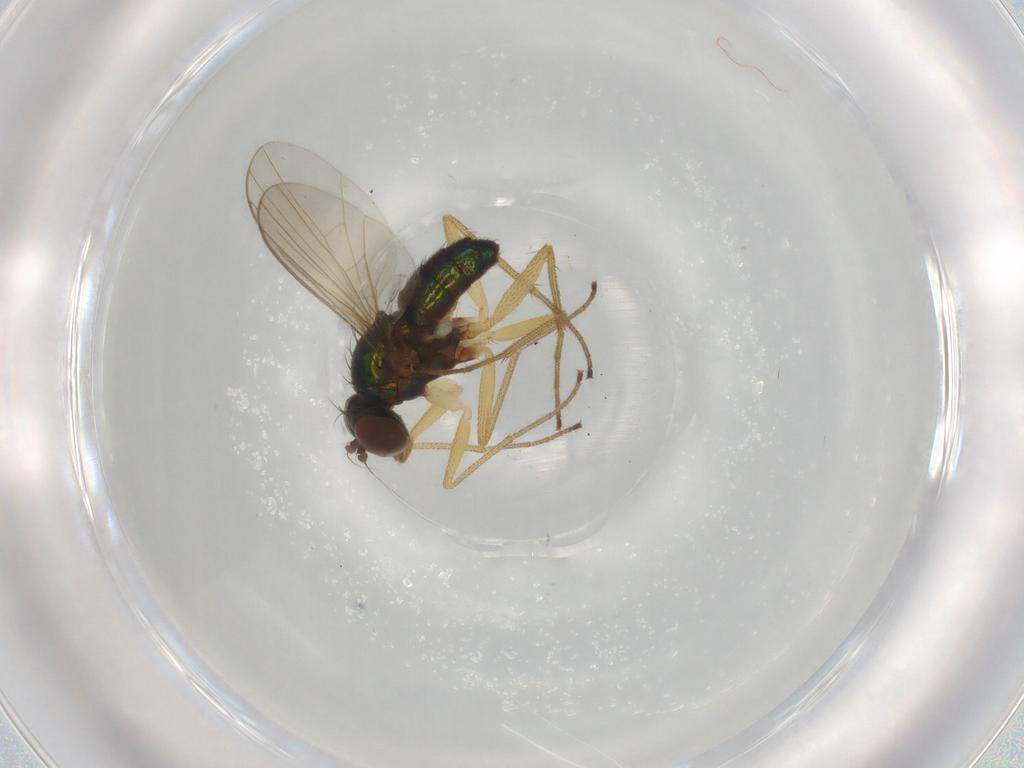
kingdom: Animalia
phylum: Arthropoda
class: Insecta
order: Diptera
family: Dolichopodidae
